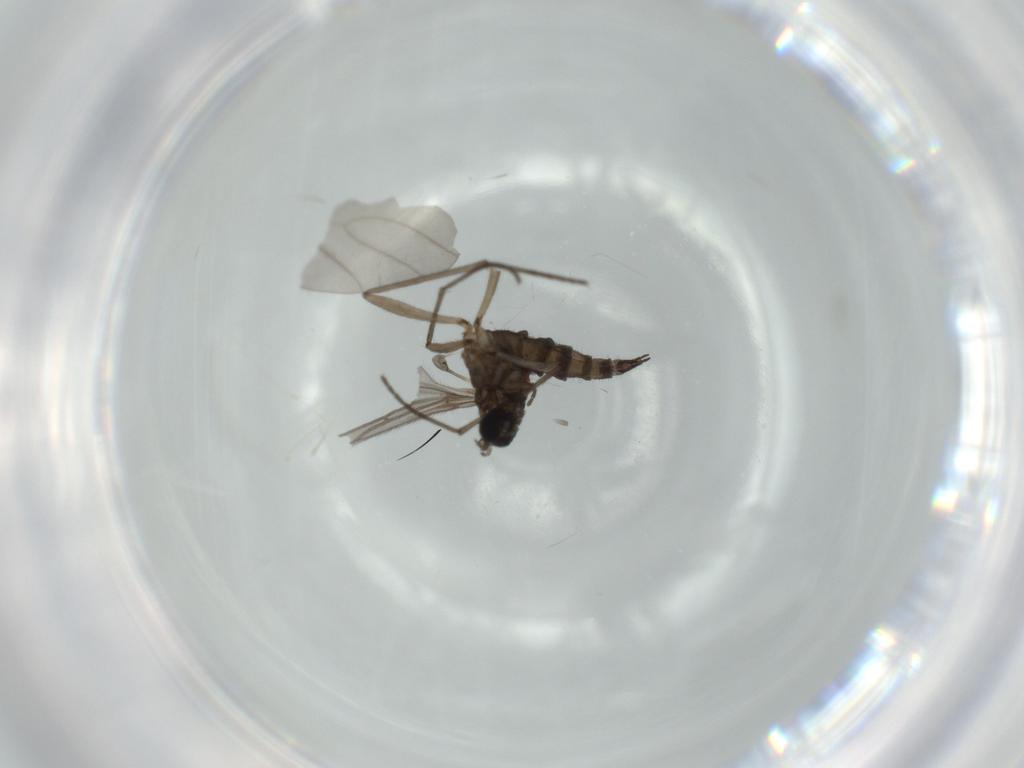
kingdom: Animalia
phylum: Arthropoda
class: Insecta
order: Diptera
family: Sciaridae
